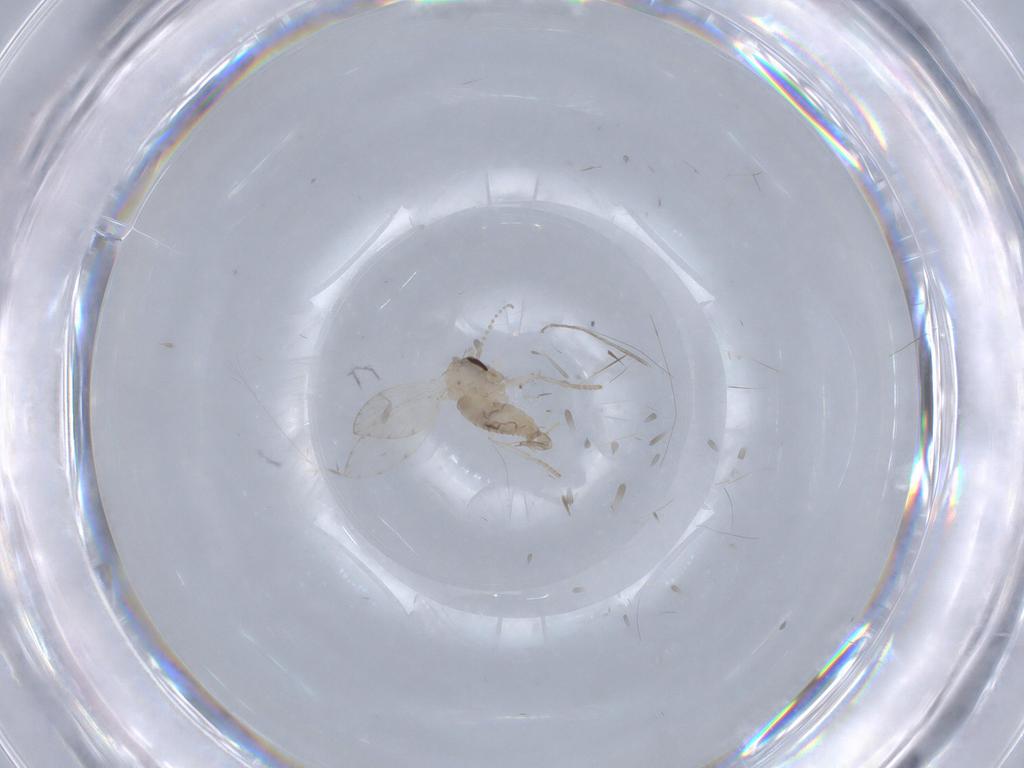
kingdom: Animalia
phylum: Arthropoda
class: Insecta
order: Diptera
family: Psychodidae
